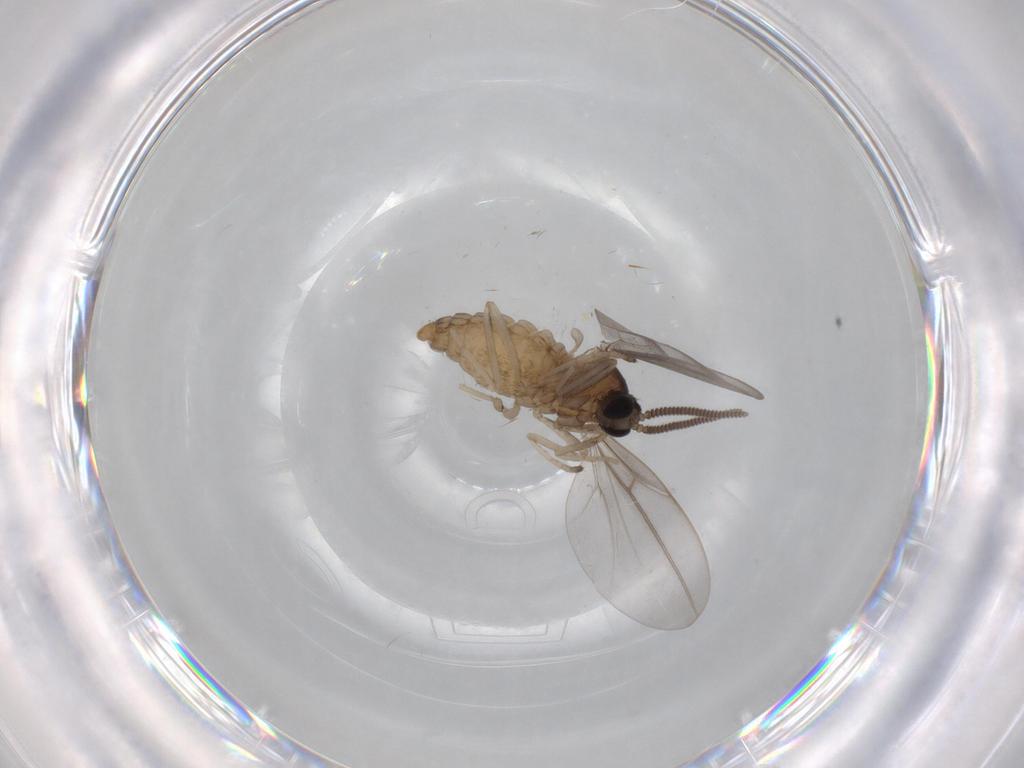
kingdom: Animalia
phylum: Arthropoda
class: Insecta
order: Diptera
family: Cecidomyiidae
